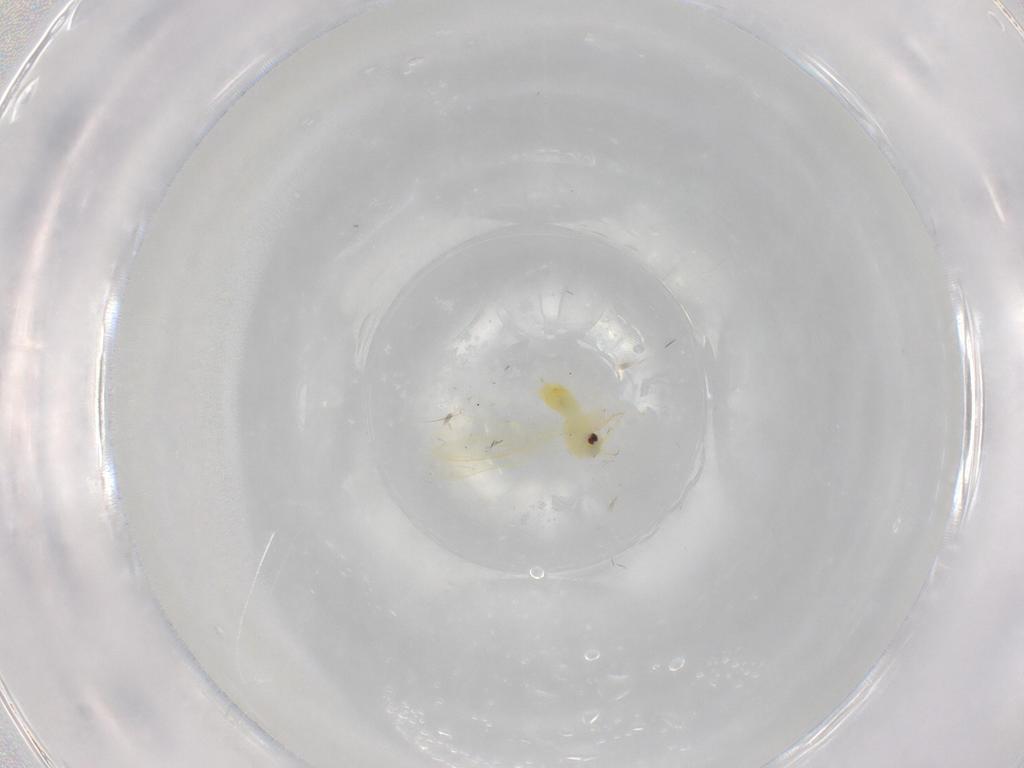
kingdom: Animalia
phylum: Arthropoda
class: Insecta
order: Hemiptera
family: Aleyrodidae
